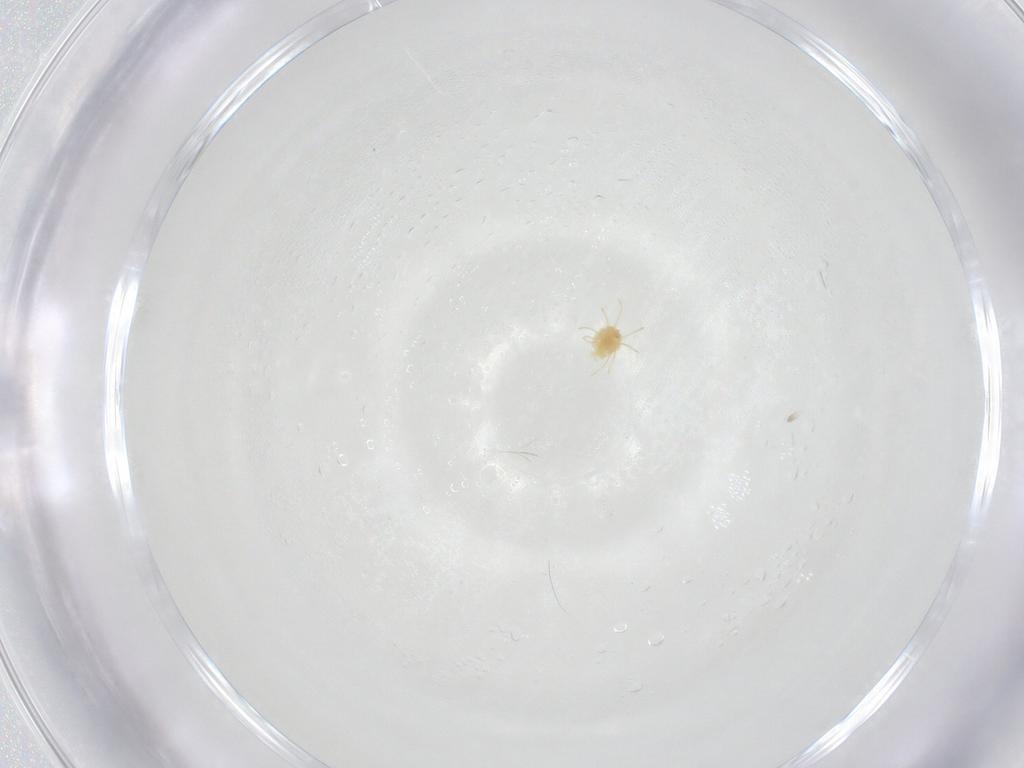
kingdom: Animalia
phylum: Arthropoda
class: Arachnida
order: Trombidiformes
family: Erythraeidae
